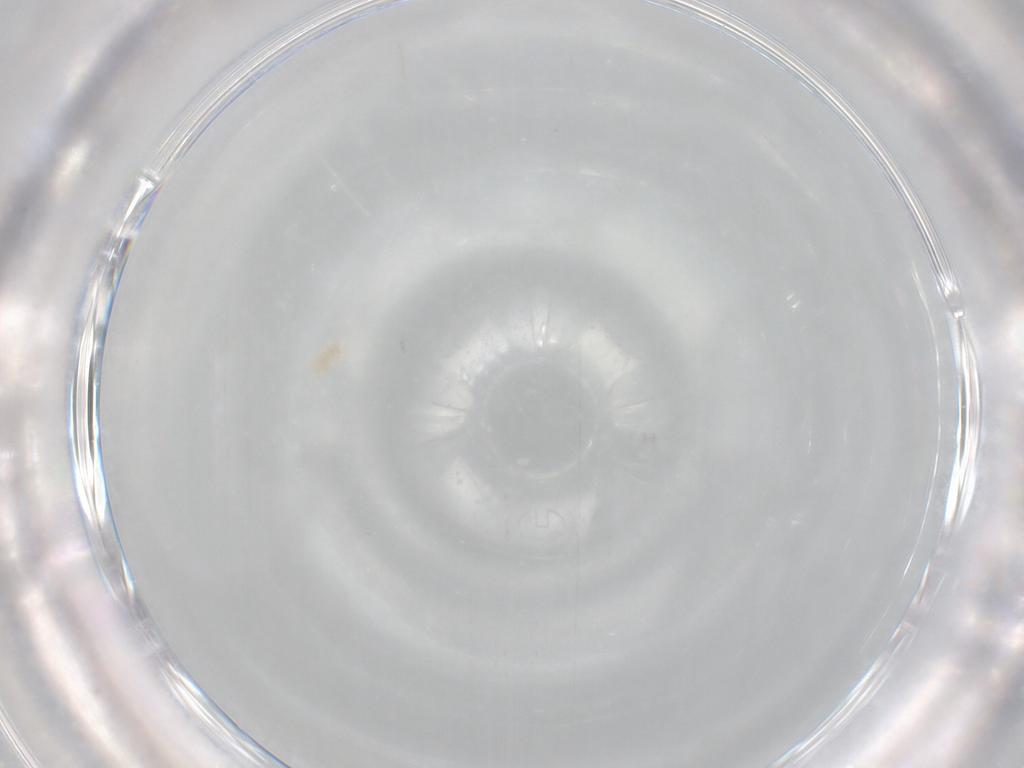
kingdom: Animalia
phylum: Arthropoda
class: Arachnida
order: Trombidiformes
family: Eupodidae
